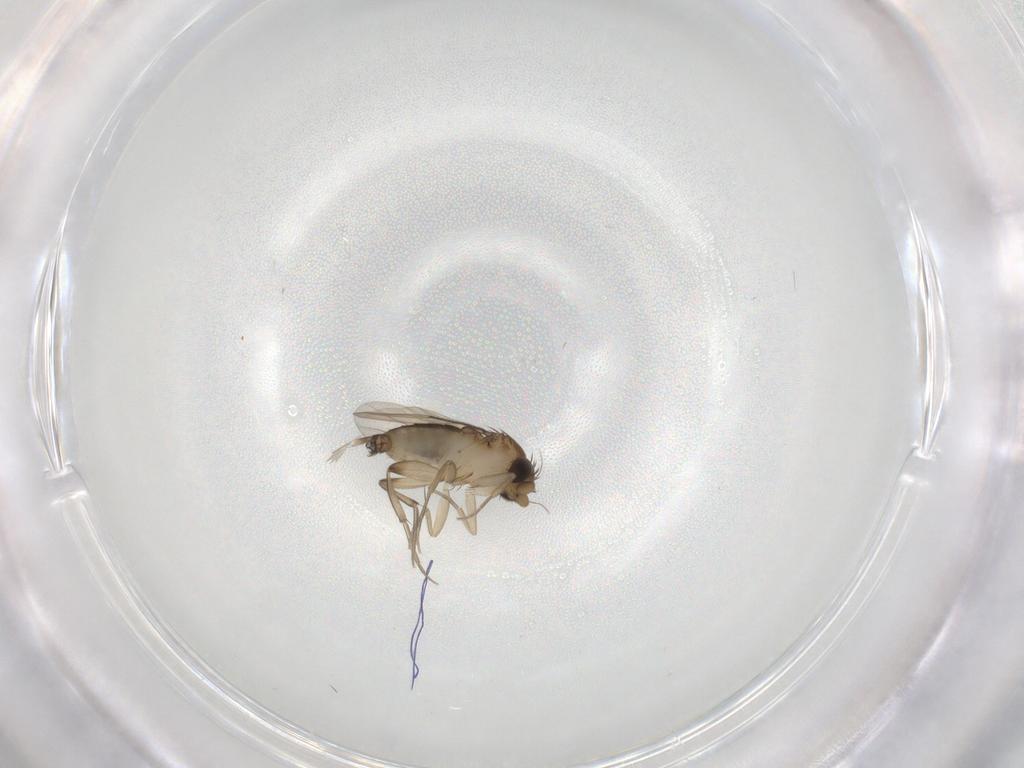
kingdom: Animalia
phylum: Arthropoda
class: Insecta
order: Diptera
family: Phoridae
